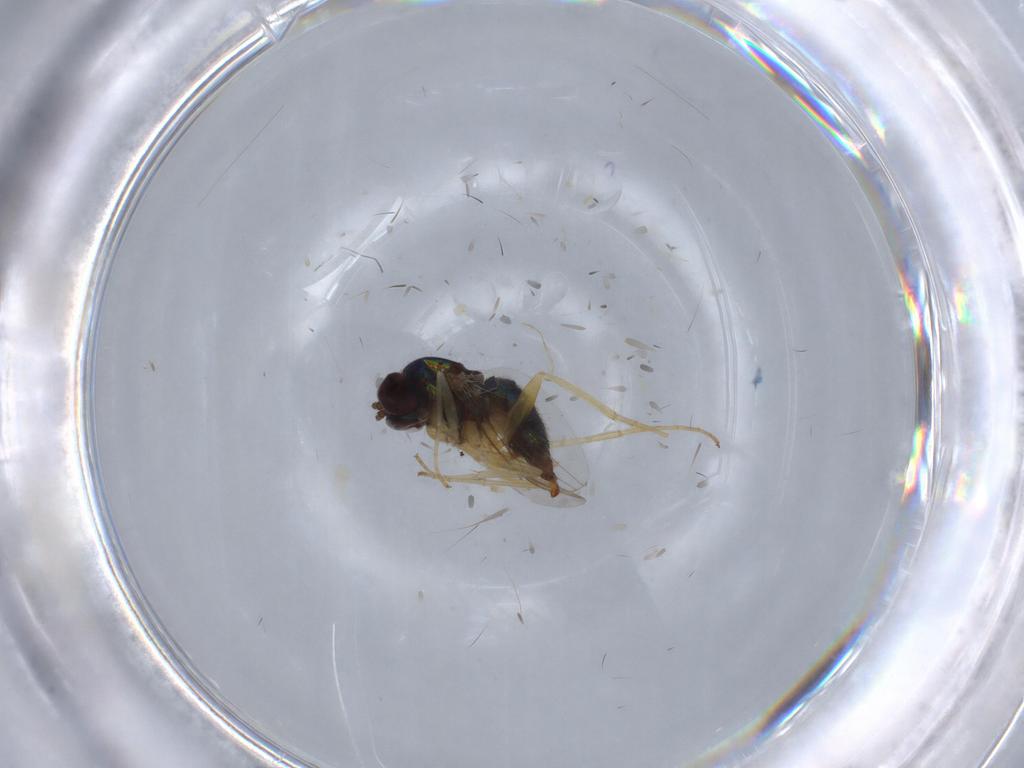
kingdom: Animalia
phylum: Arthropoda
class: Insecta
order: Diptera
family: Dolichopodidae
